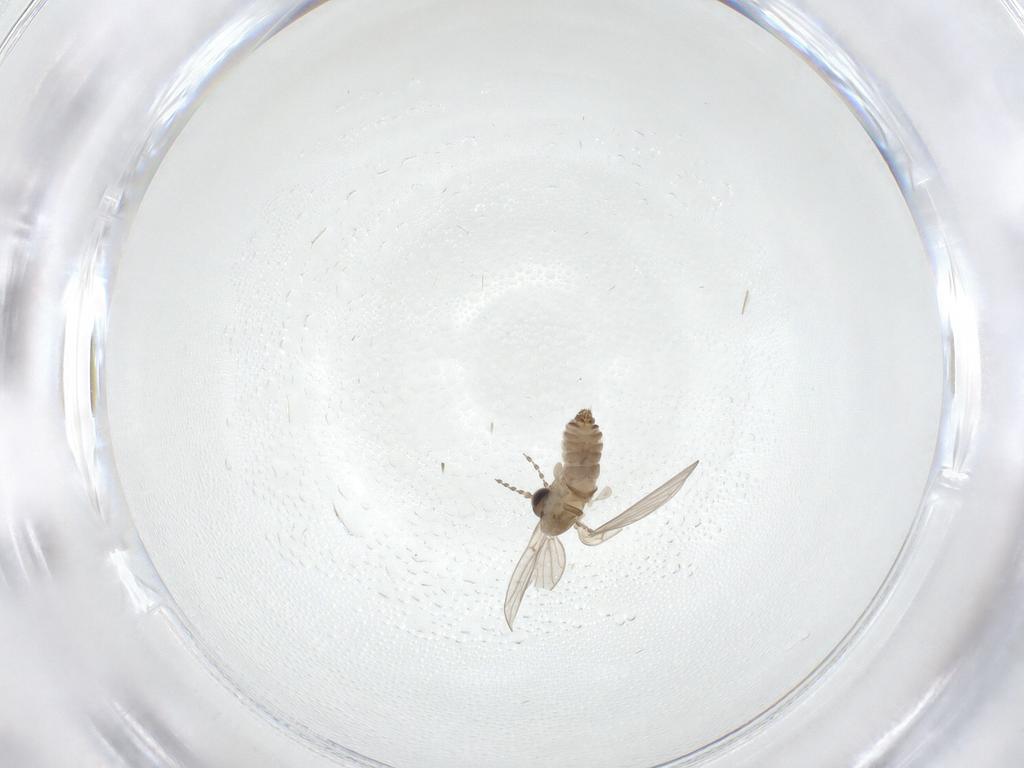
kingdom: Animalia
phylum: Arthropoda
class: Insecta
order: Diptera
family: Psychodidae
